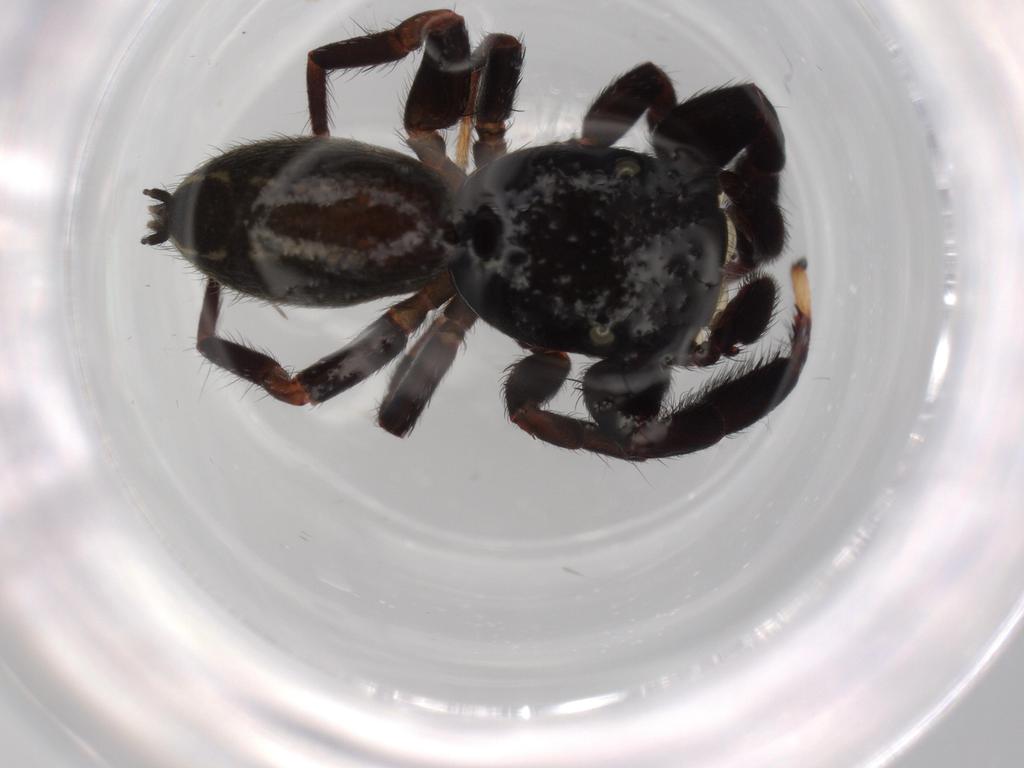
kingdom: Animalia
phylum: Arthropoda
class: Arachnida
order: Araneae
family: Salticidae
